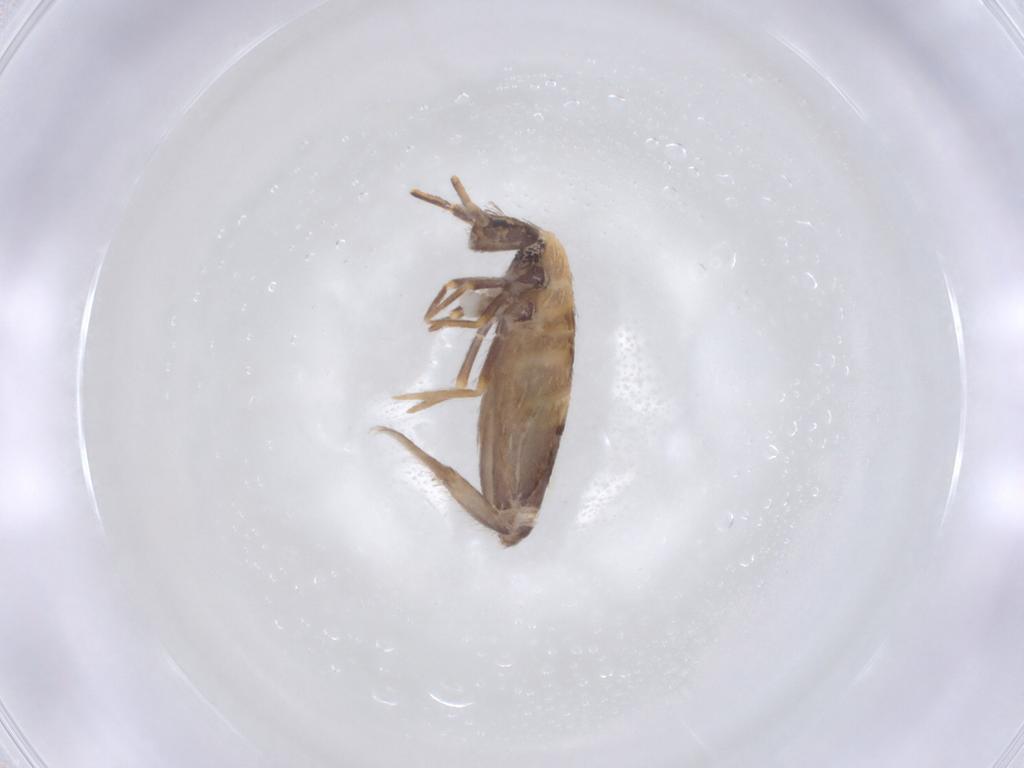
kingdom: Animalia
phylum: Arthropoda
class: Collembola
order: Entomobryomorpha
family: Entomobryidae
